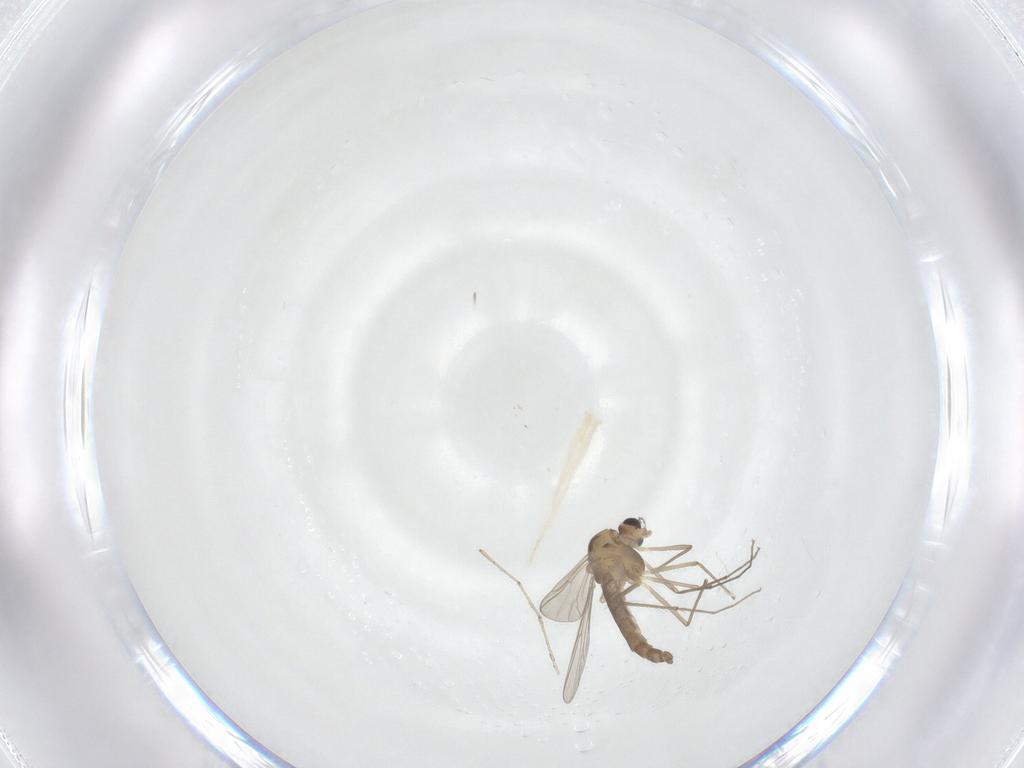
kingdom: Animalia
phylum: Arthropoda
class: Insecta
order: Diptera
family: Chironomidae
